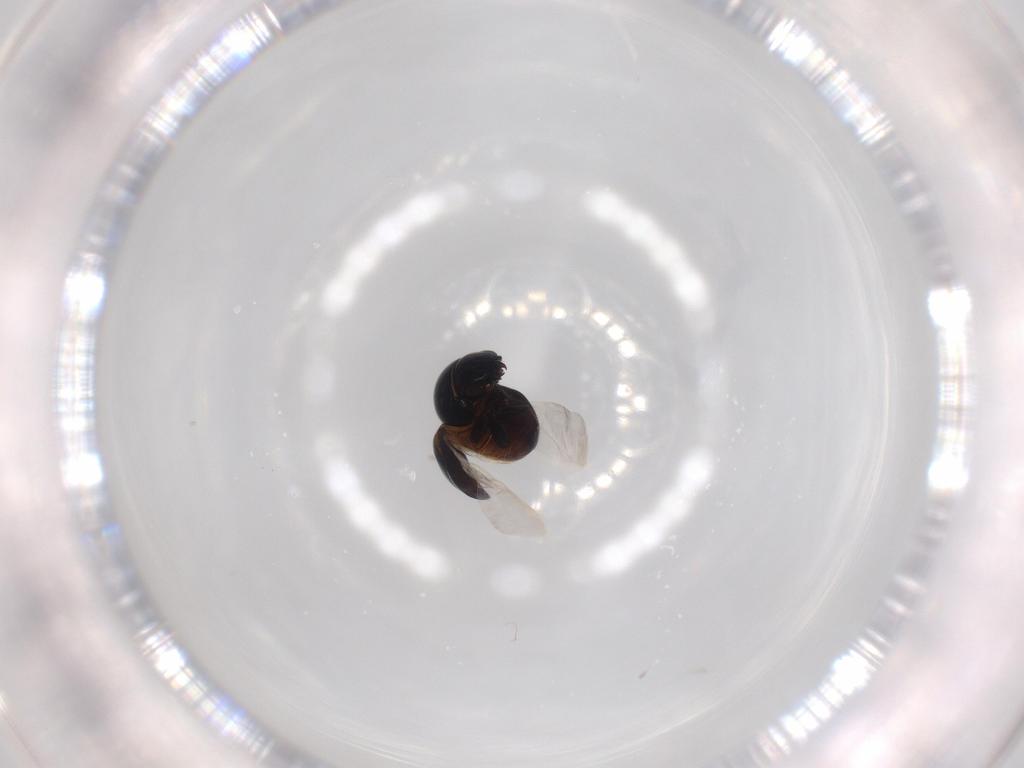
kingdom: Animalia
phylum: Arthropoda
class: Insecta
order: Coleoptera
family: Cybocephalidae
